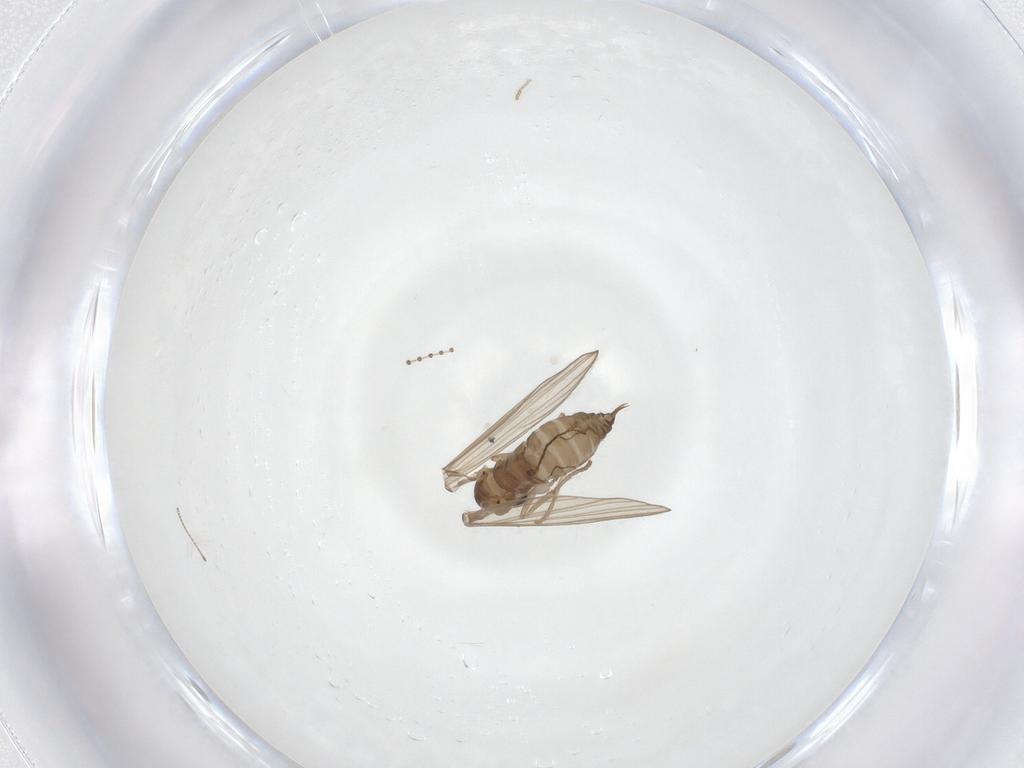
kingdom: Animalia
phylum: Arthropoda
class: Insecta
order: Diptera
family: Psychodidae
